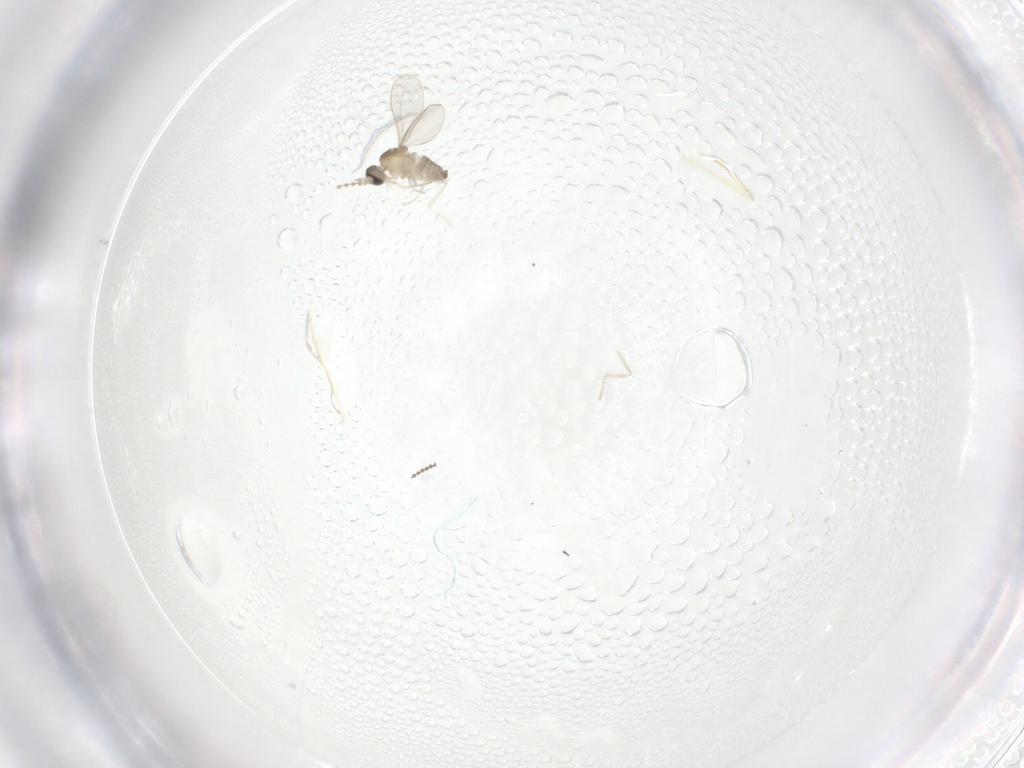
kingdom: Animalia
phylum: Arthropoda
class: Insecta
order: Diptera
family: Cecidomyiidae
